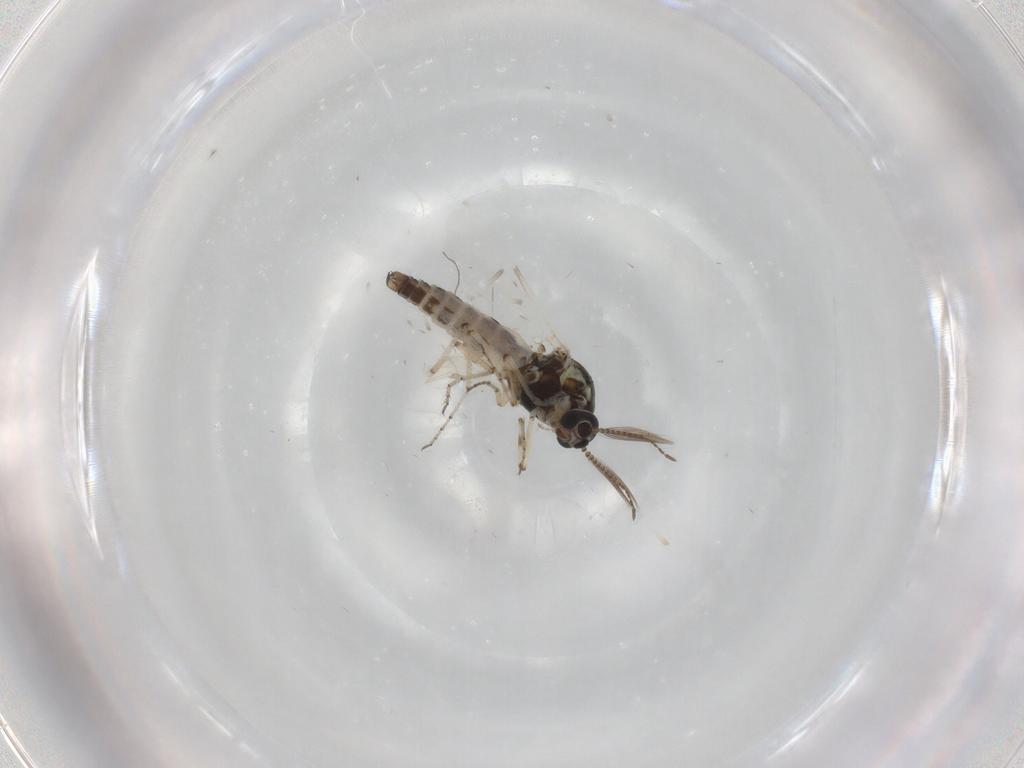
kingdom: Animalia
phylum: Arthropoda
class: Insecta
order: Diptera
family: Ceratopogonidae
